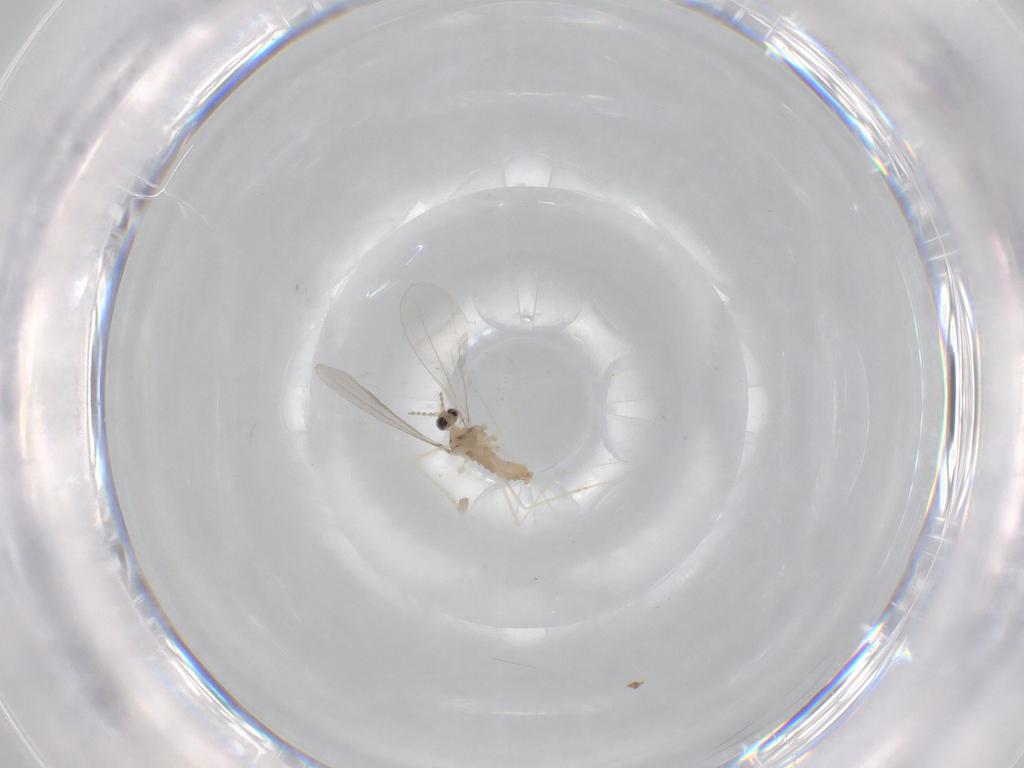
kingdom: Animalia
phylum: Arthropoda
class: Insecta
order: Diptera
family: Cecidomyiidae
